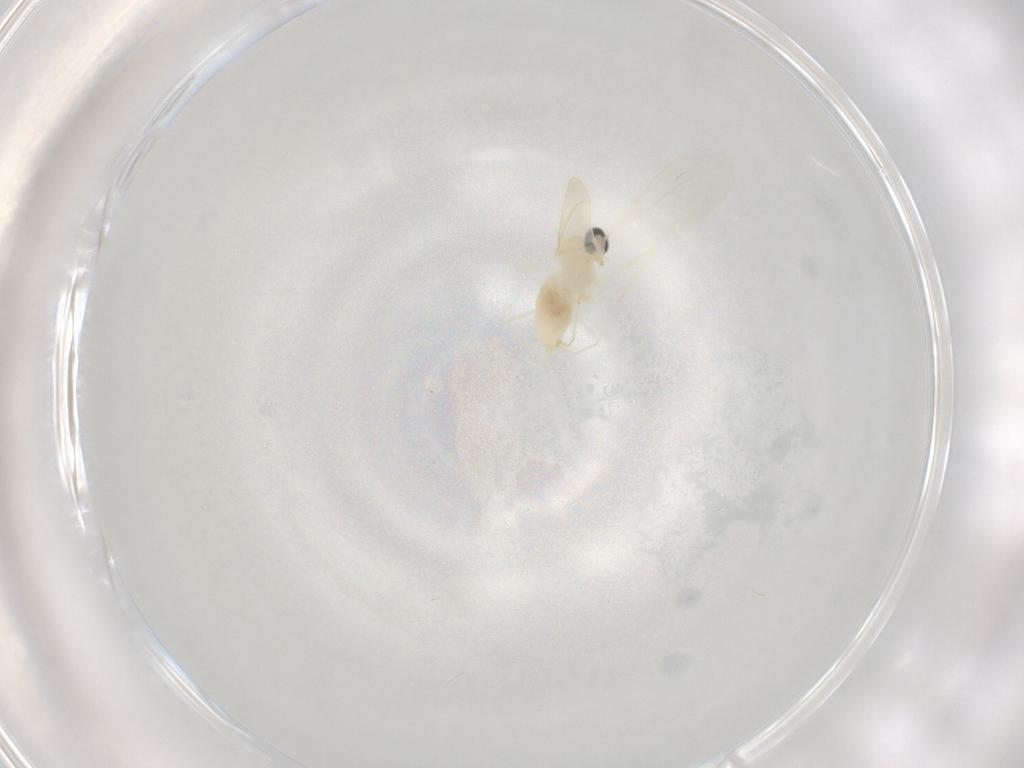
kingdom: Animalia
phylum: Arthropoda
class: Insecta
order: Diptera
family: Cecidomyiidae
